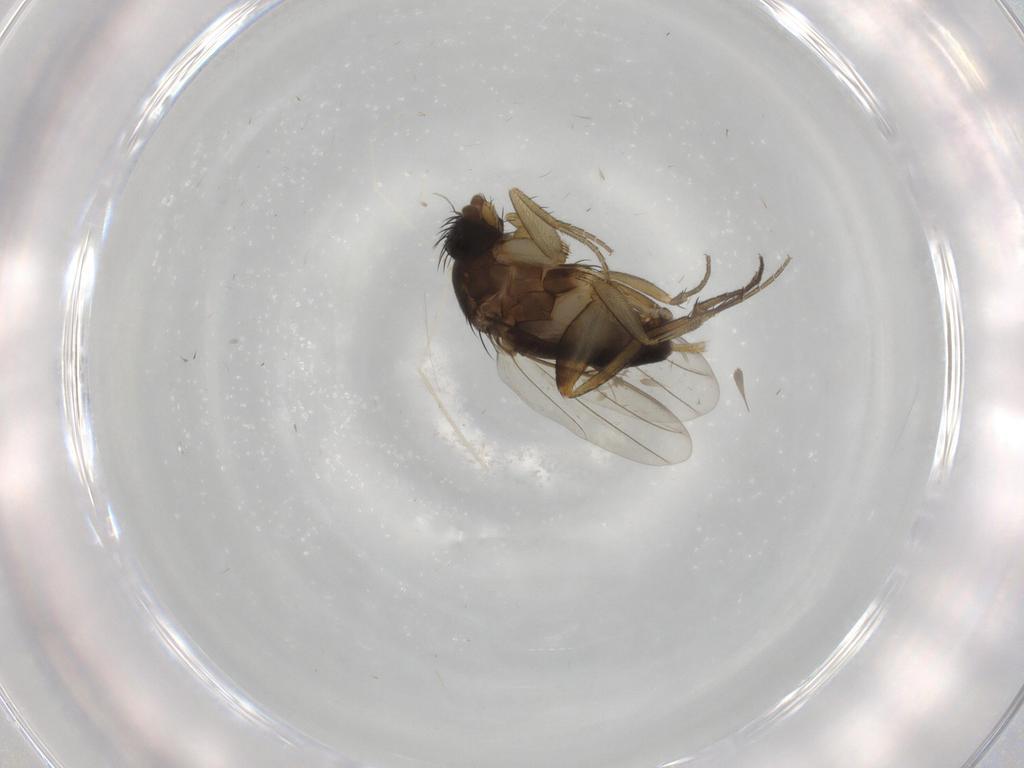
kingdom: Animalia
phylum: Arthropoda
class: Insecta
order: Diptera
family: Phoridae
